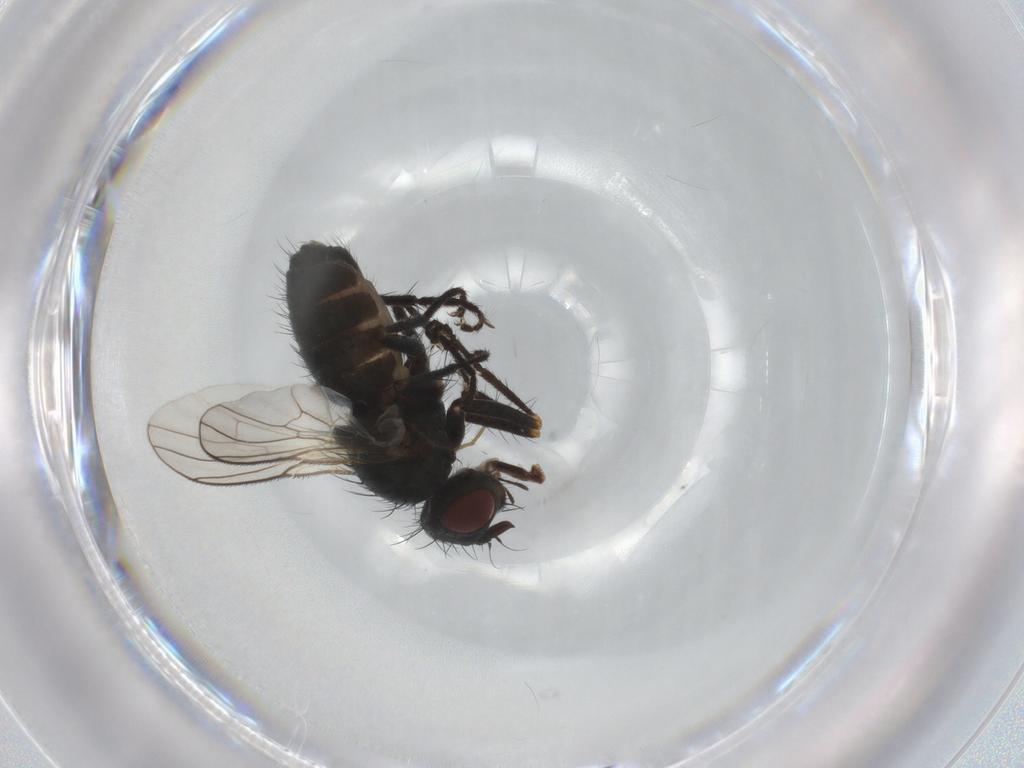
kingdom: Animalia
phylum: Arthropoda
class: Insecta
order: Diptera
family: Muscidae
